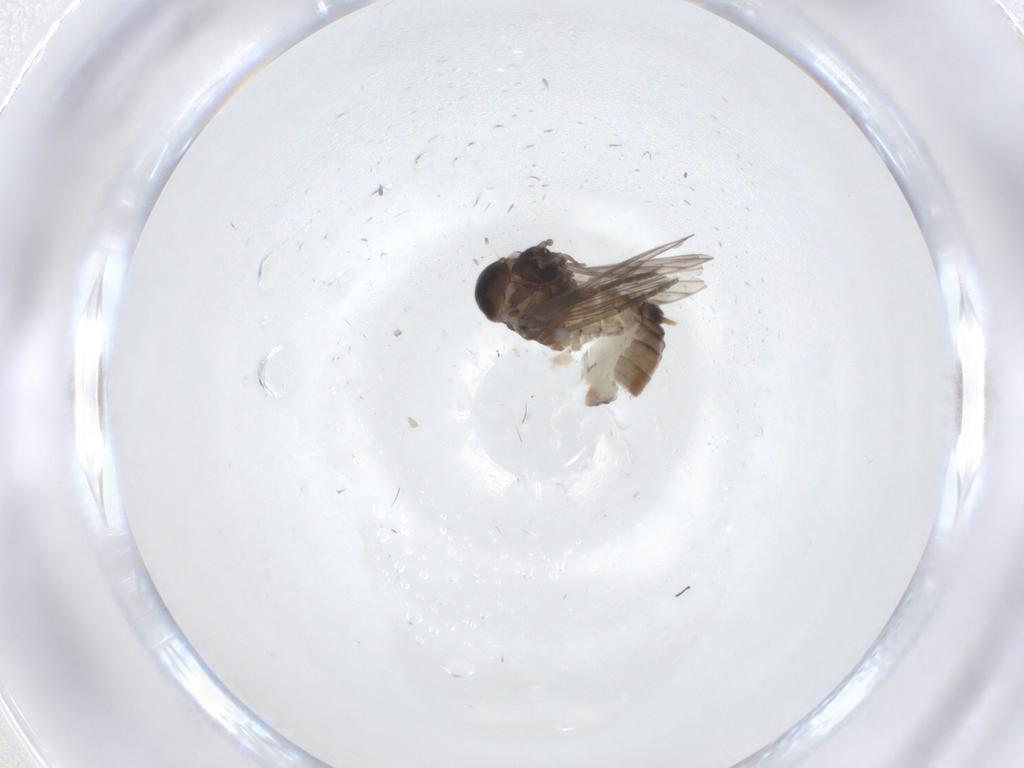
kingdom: Animalia
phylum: Arthropoda
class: Insecta
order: Diptera
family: Psychodidae
